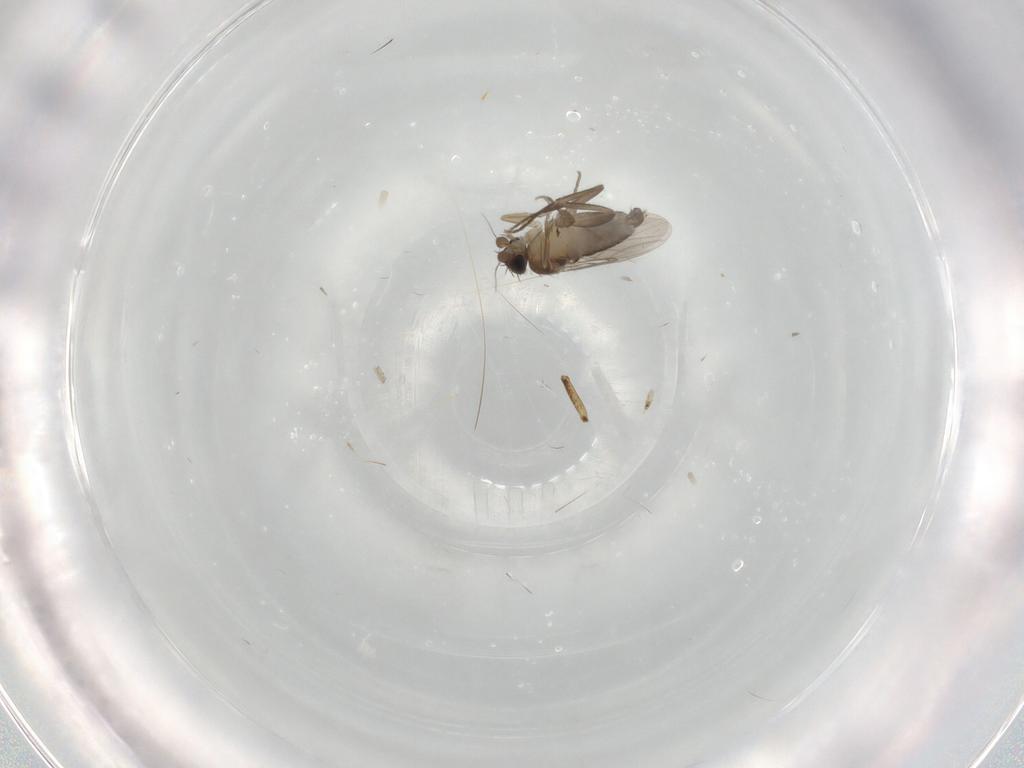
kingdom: Animalia
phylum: Arthropoda
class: Insecta
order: Diptera
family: Phoridae
